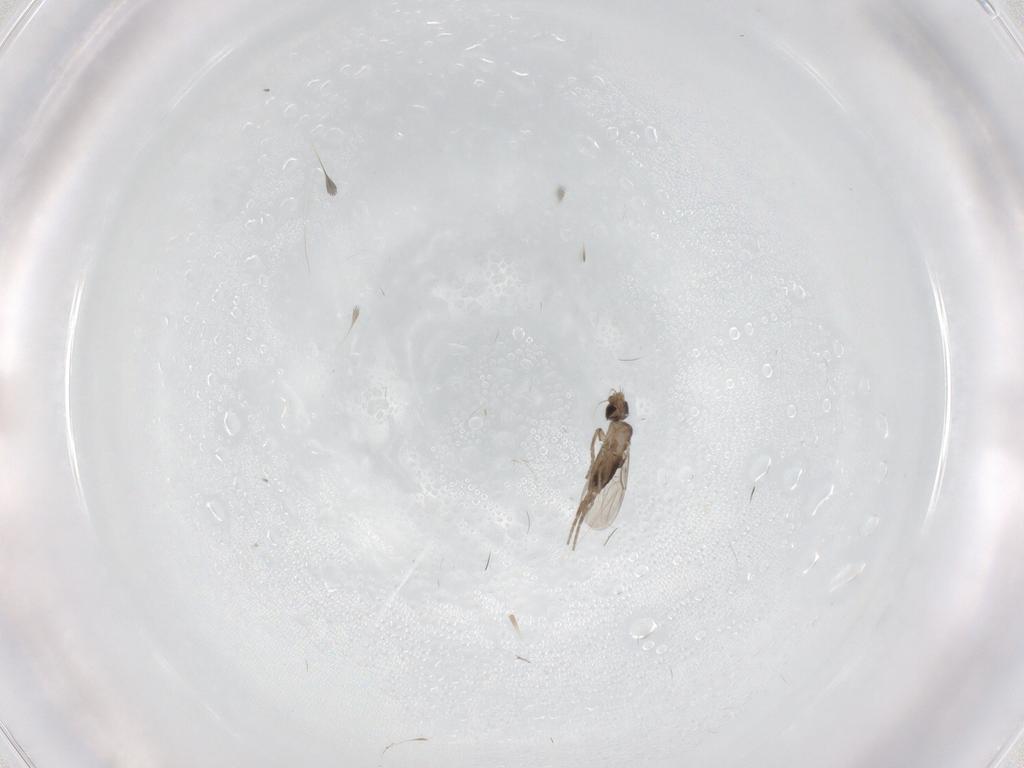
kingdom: Animalia
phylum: Arthropoda
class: Insecta
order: Diptera
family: Phoridae
